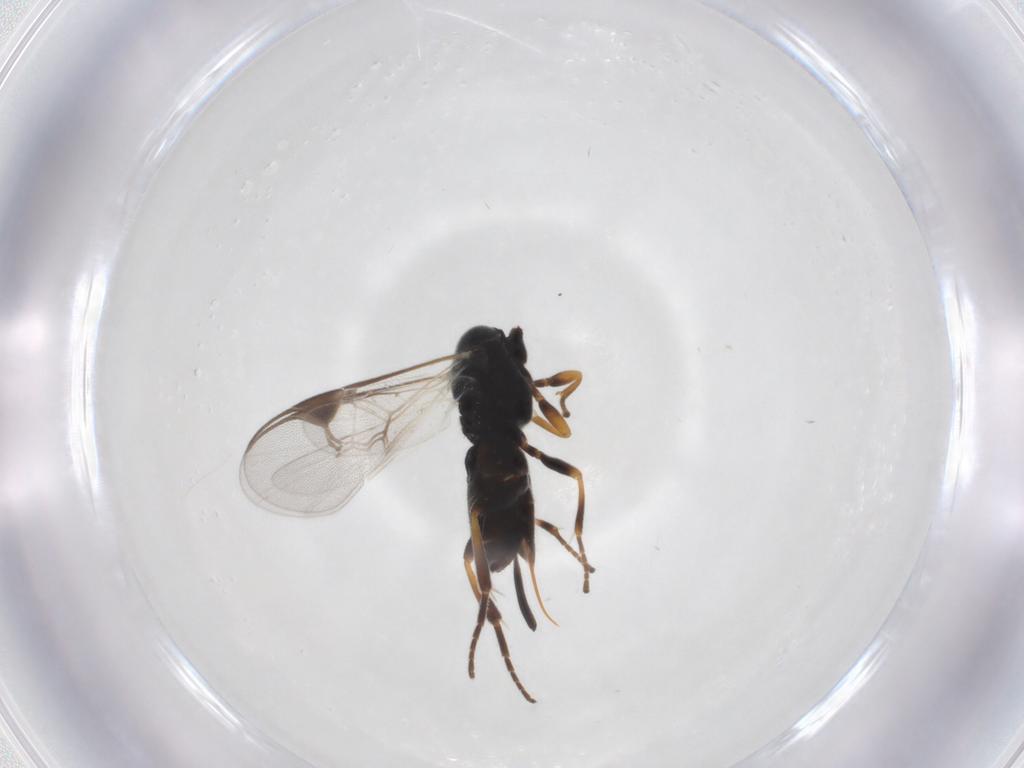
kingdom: Animalia
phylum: Arthropoda
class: Insecta
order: Hymenoptera
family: Braconidae
